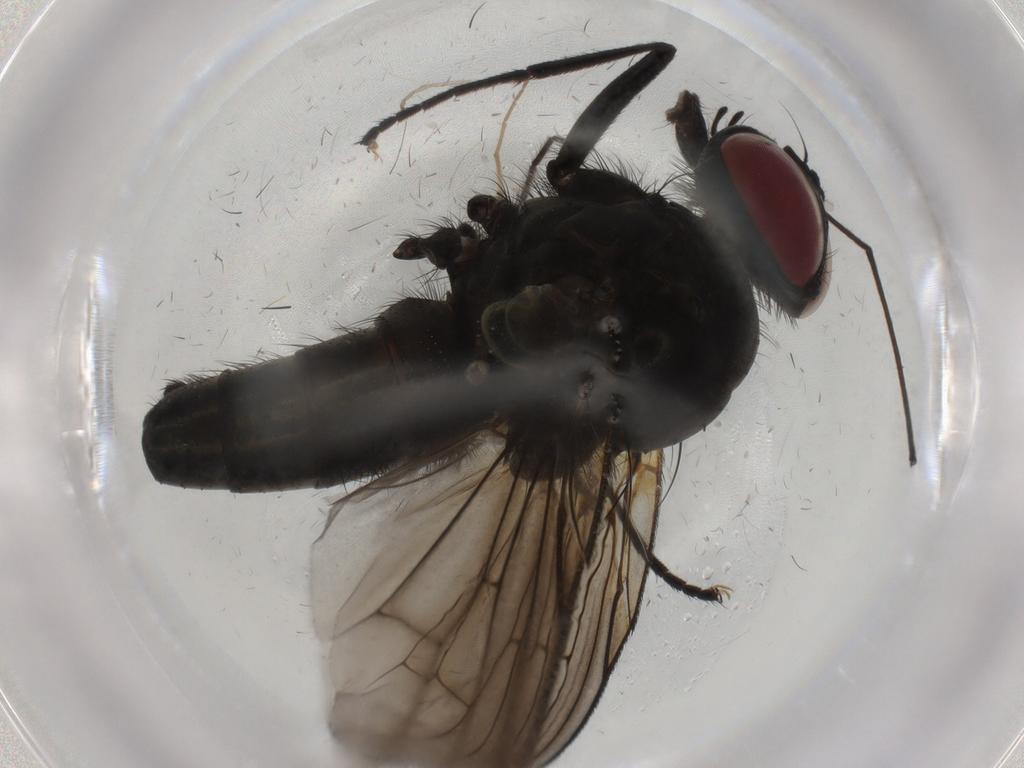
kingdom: Animalia
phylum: Arthropoda
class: Insecta
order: Diptera
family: Muscidae
